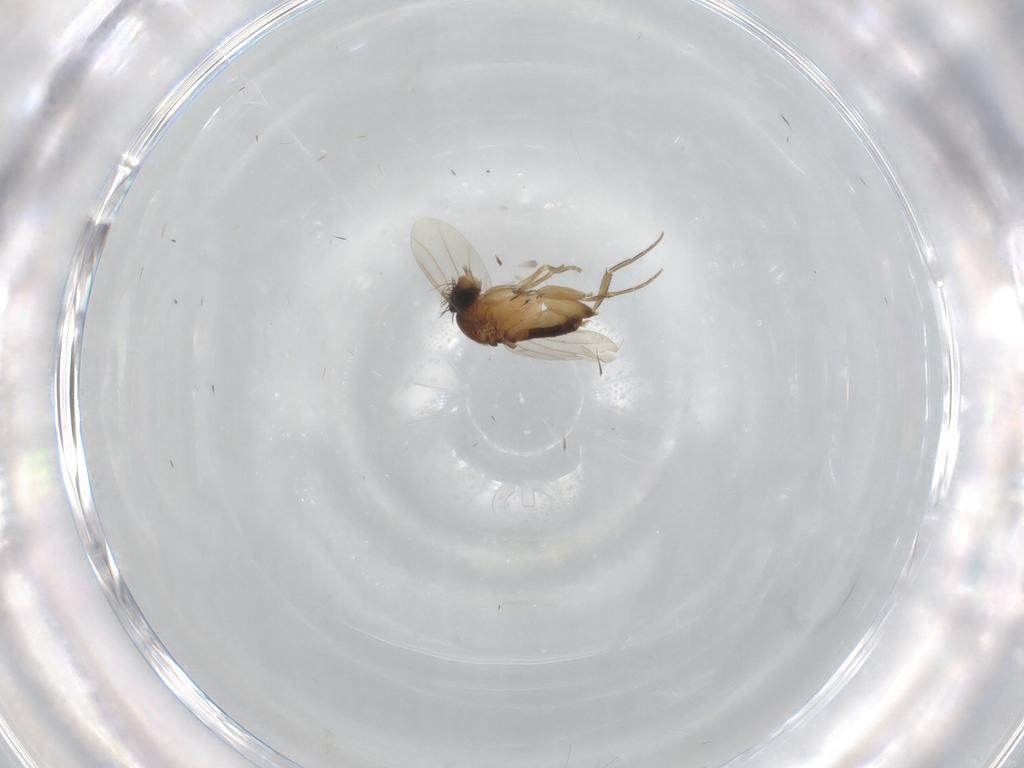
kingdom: Animalia
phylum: Arthropoda
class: Insecta
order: Diptera
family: Phoridae
